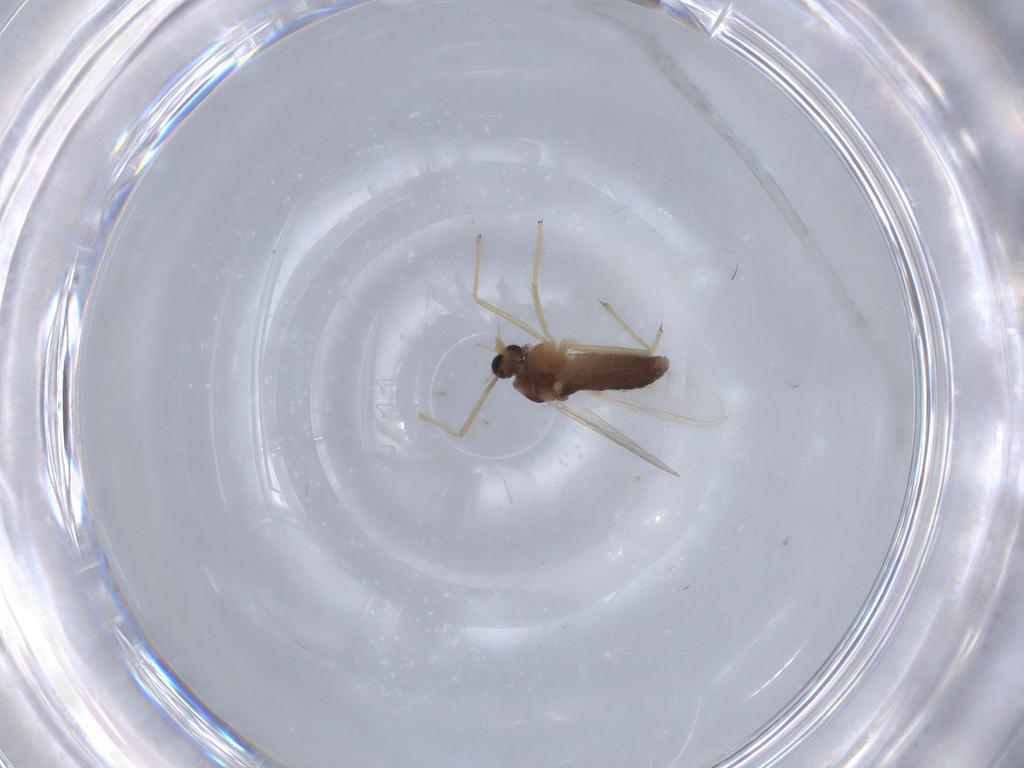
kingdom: Animalia
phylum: Arthropoda
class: Insecta
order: Diptera
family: Chironomidae
